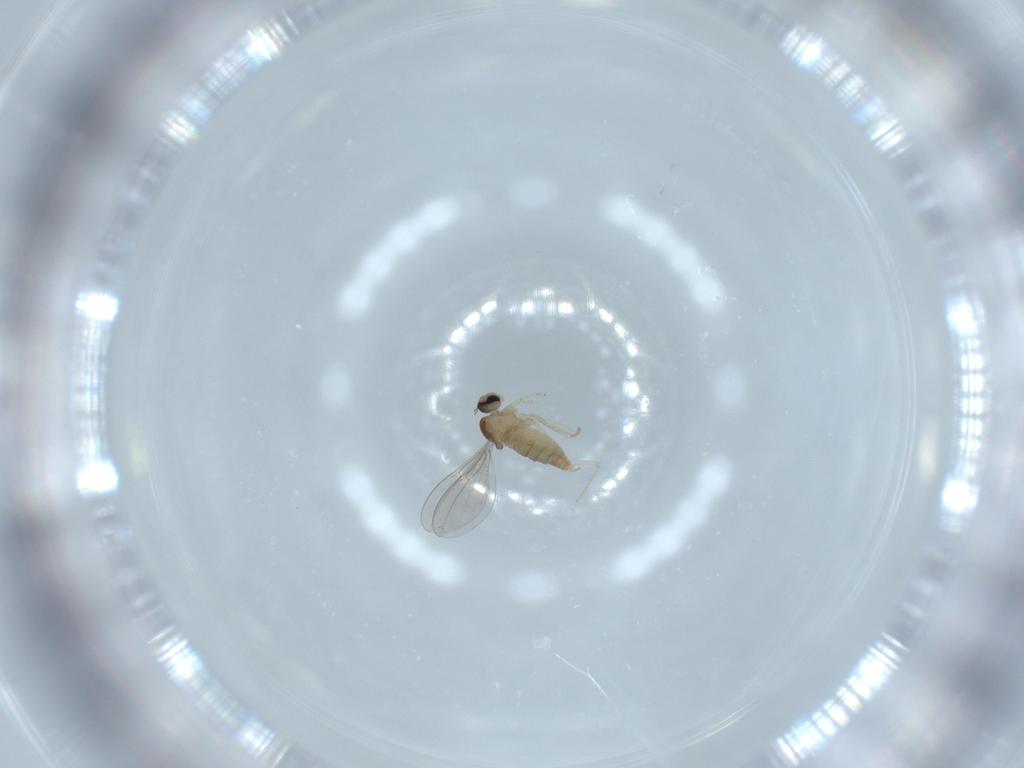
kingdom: Animalia
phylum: Arthropoda
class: Insecta
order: Diptera
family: Cecidomyiidae
